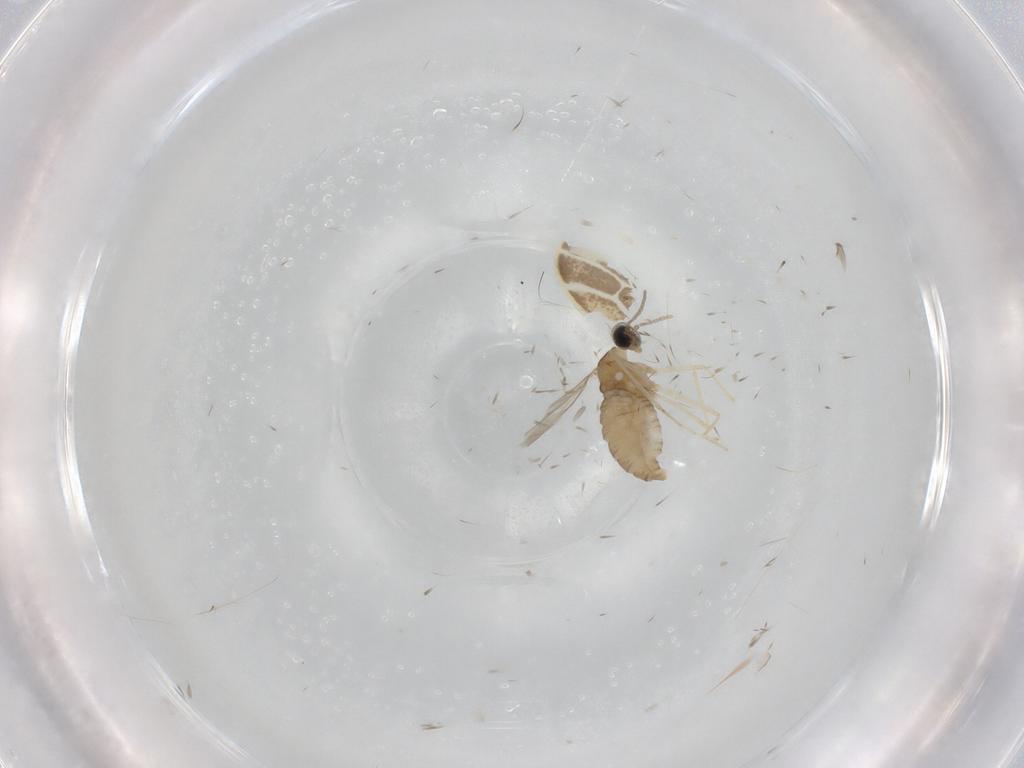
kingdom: Animalia
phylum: Arthropoda
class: Insecta
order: Diptera
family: Cecidomyiidae
